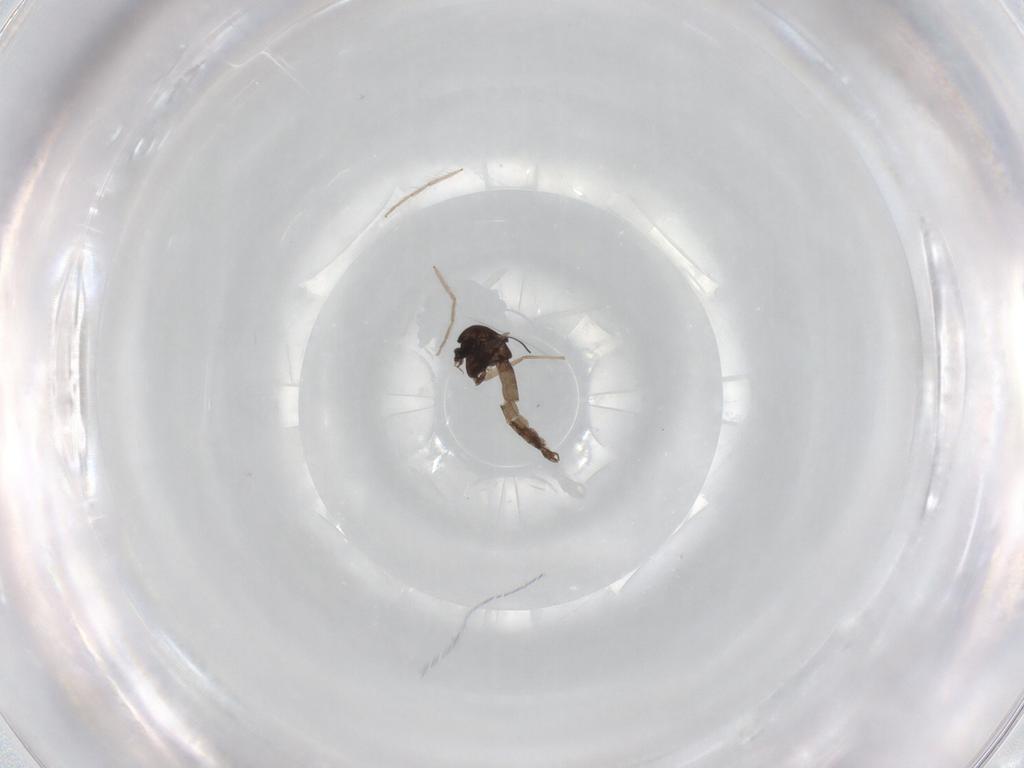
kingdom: Animalia
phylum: Arthropoda
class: Insecta
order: Diptera
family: Chironomidae
